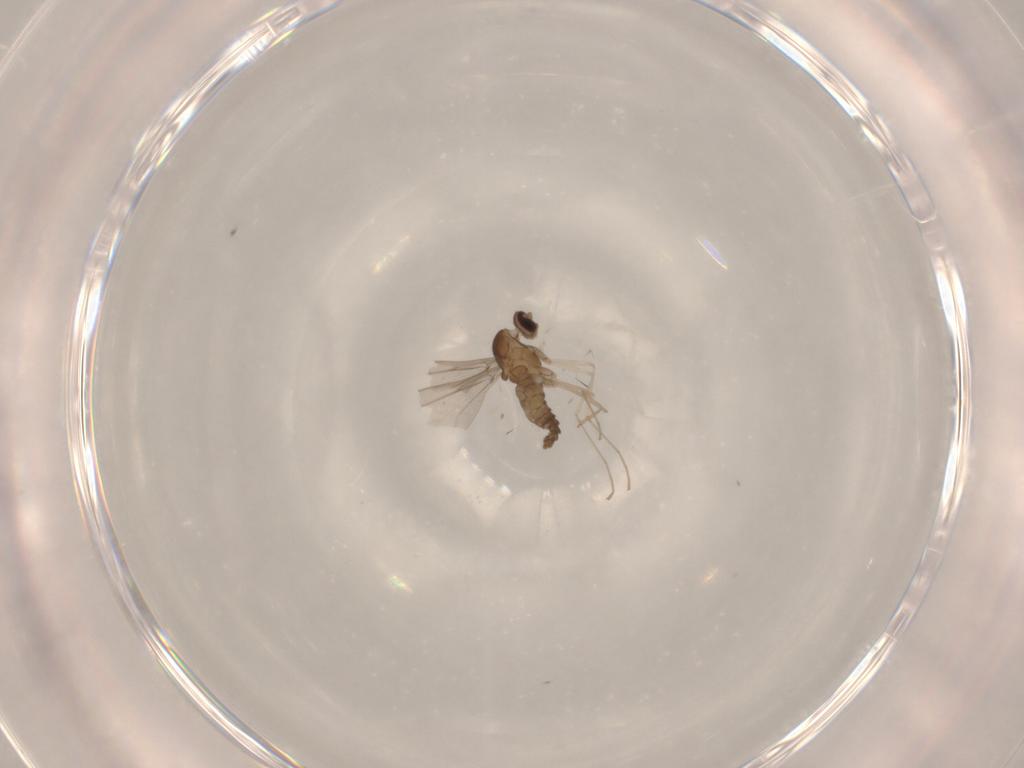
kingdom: Animalia
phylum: Arthropoda
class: Insecta
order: Diptera
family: Cecidomyiidae
